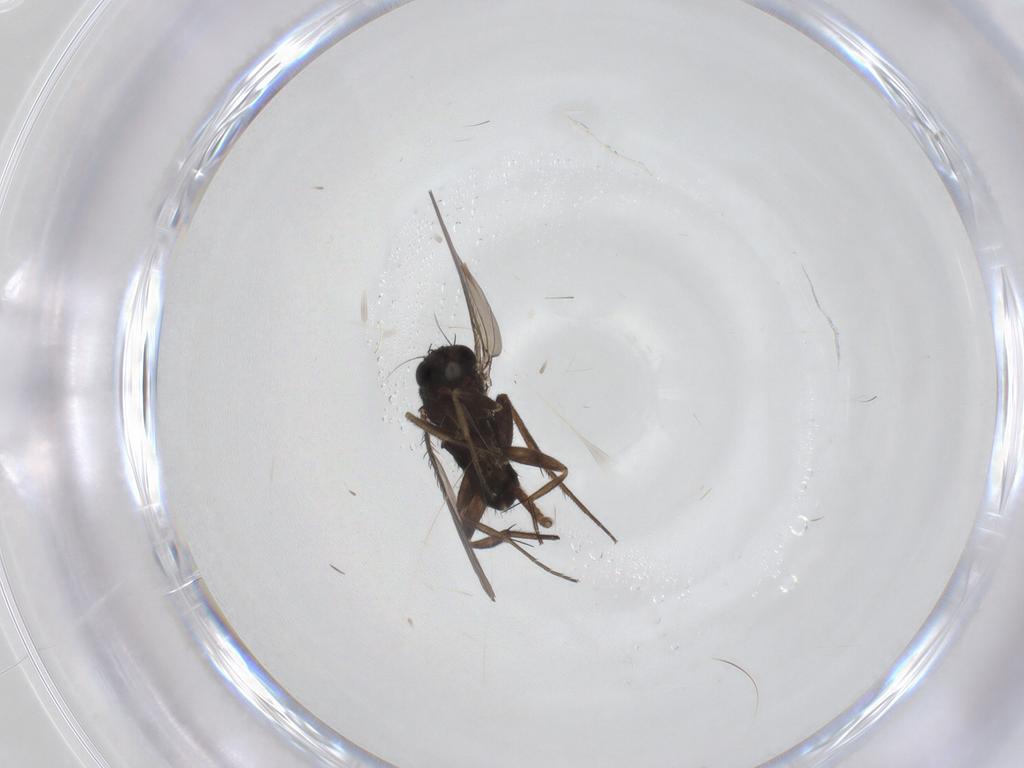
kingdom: Animalia
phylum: Arthropoda
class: Insecta
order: Diptera
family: Phoridae
